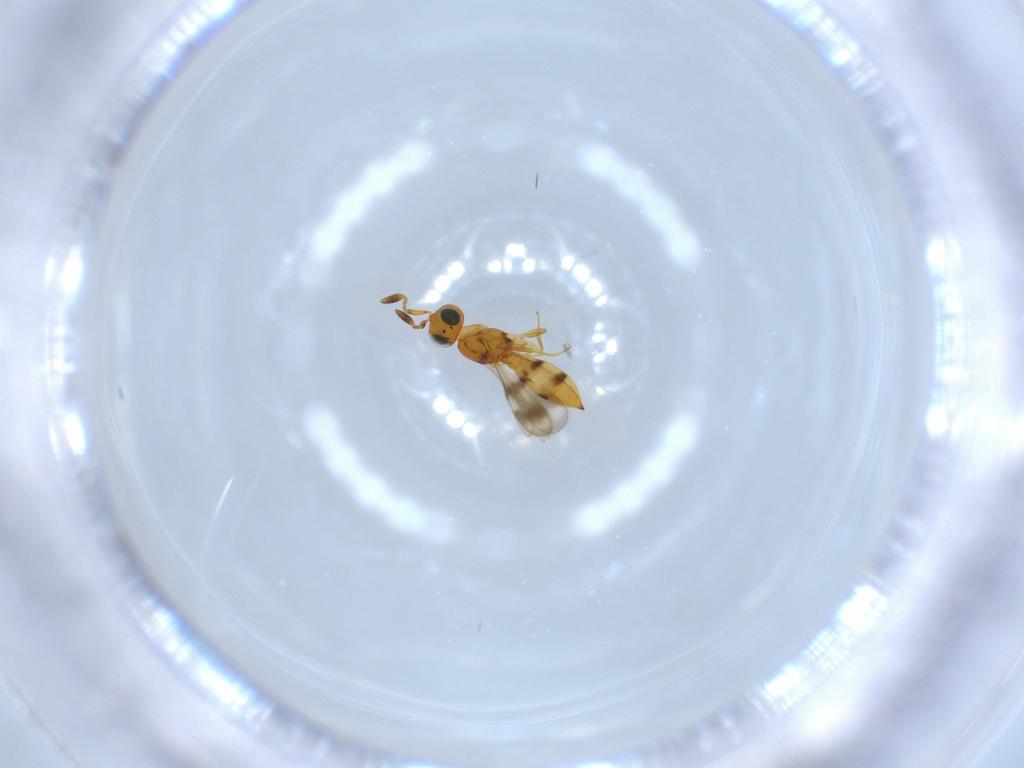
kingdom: Animalia
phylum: Arthropoda
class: Insecta
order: Hymenoptera
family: Scelionidae
